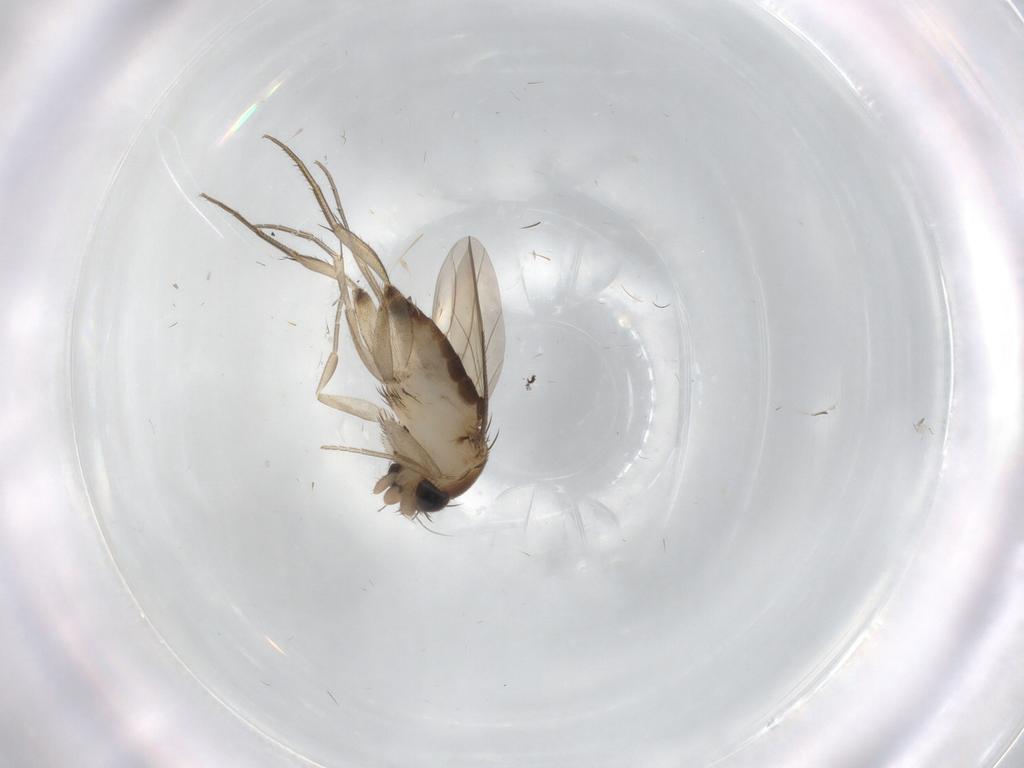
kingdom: Animalia
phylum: Arthropoda
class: Insecta
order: Diptera
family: Phoridae
